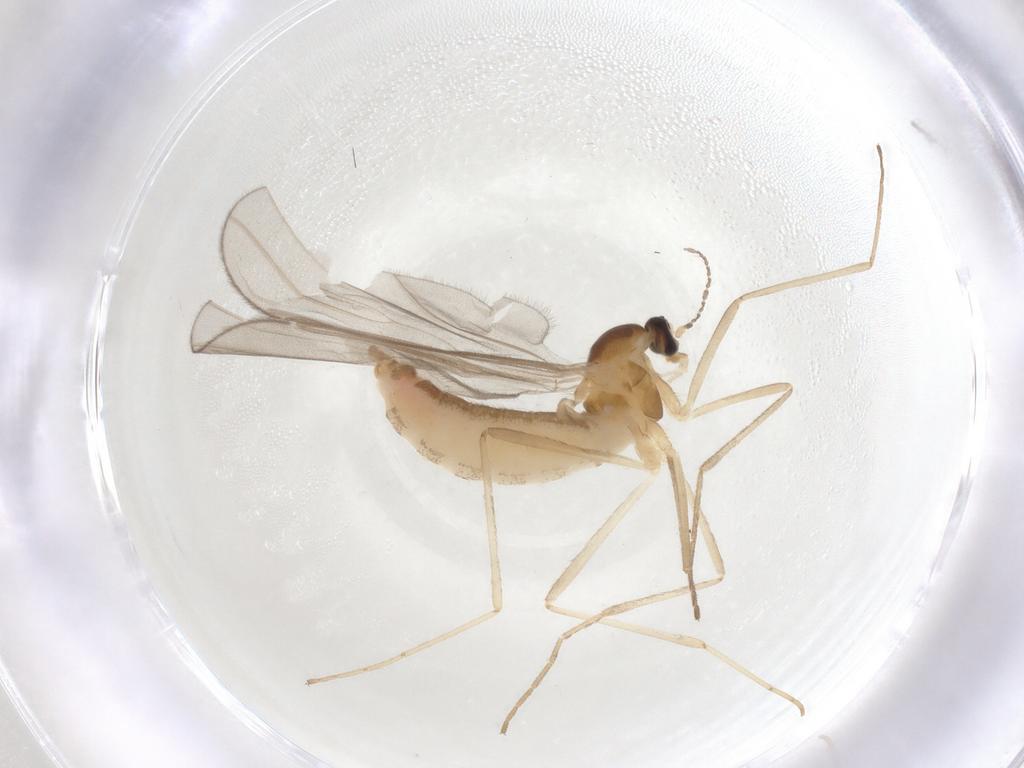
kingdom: Animalia
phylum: Arthropoda
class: Insecta
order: Diptera
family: Cecidomyiidae
